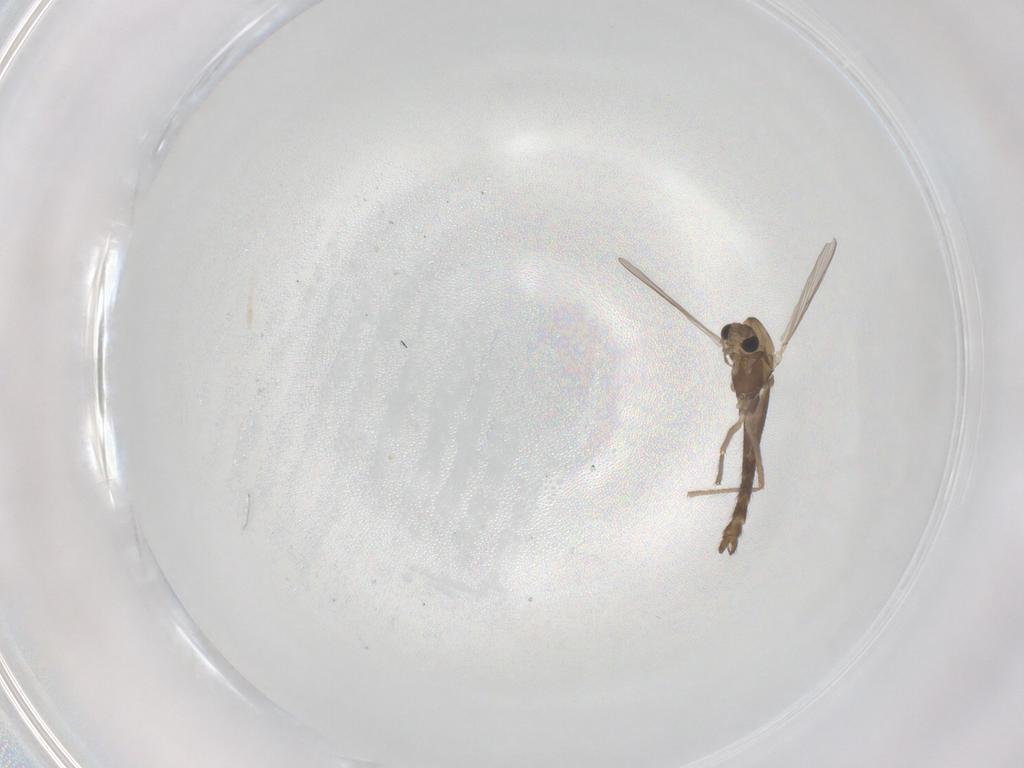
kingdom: Animalia
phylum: Arthropoda
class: Insecta
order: Diptera
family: Chironomidae
